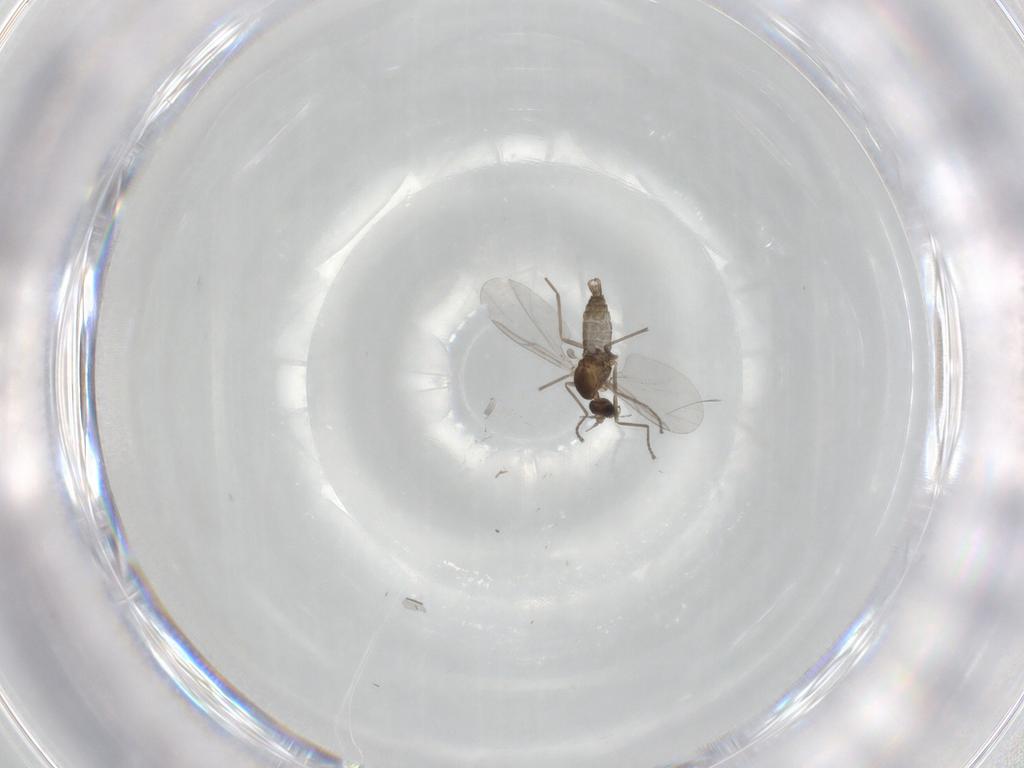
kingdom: Animalia
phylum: Arthropoda
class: Insecta
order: Diptera
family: Cecidomyiidae
